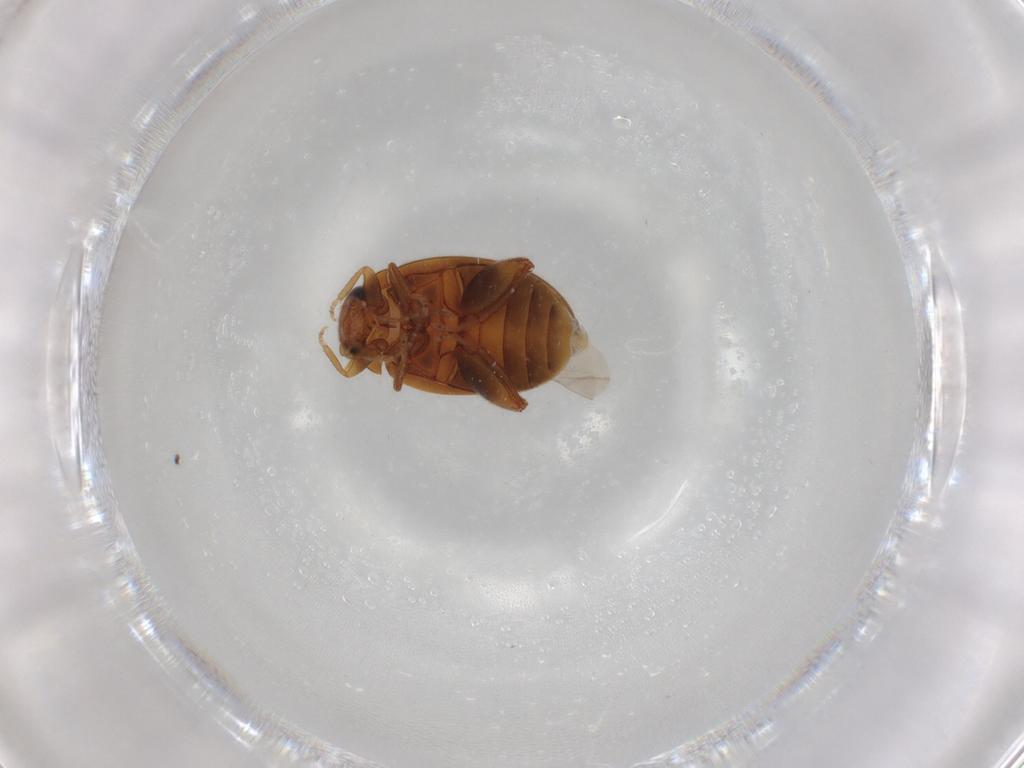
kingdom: Animalia
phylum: Arthropoda
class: Insecta
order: Coleoptera
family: Scirtidae
